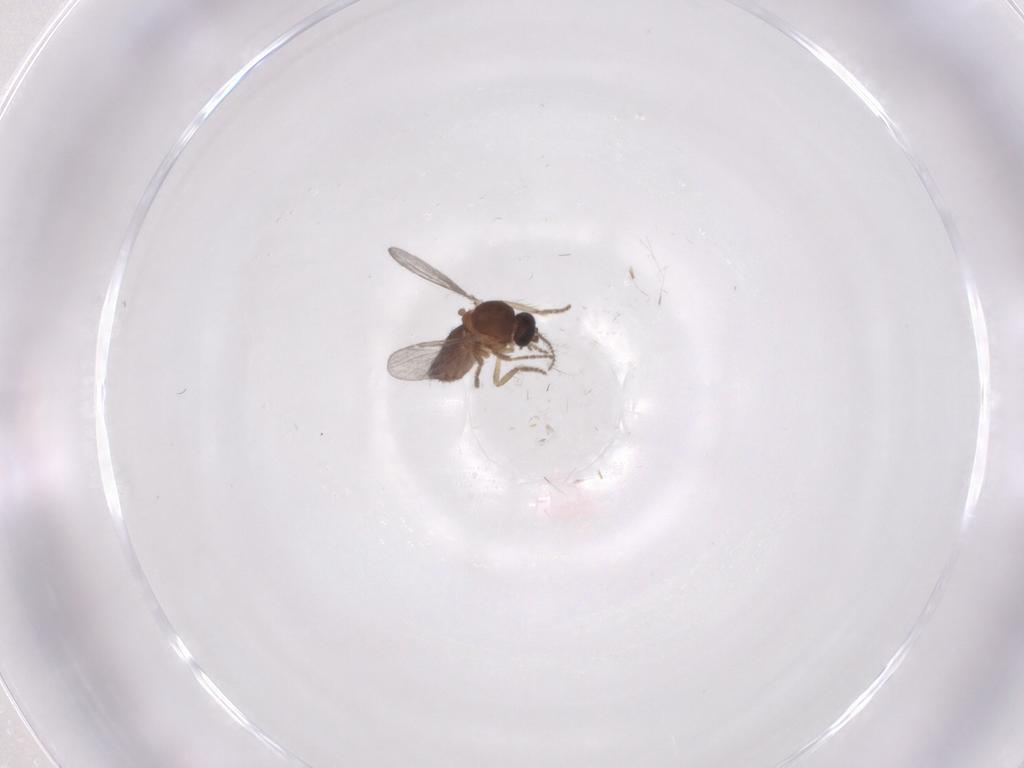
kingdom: Animalia
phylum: Arthropoda
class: Insecta
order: Diptera
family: Ceratopogonidae
